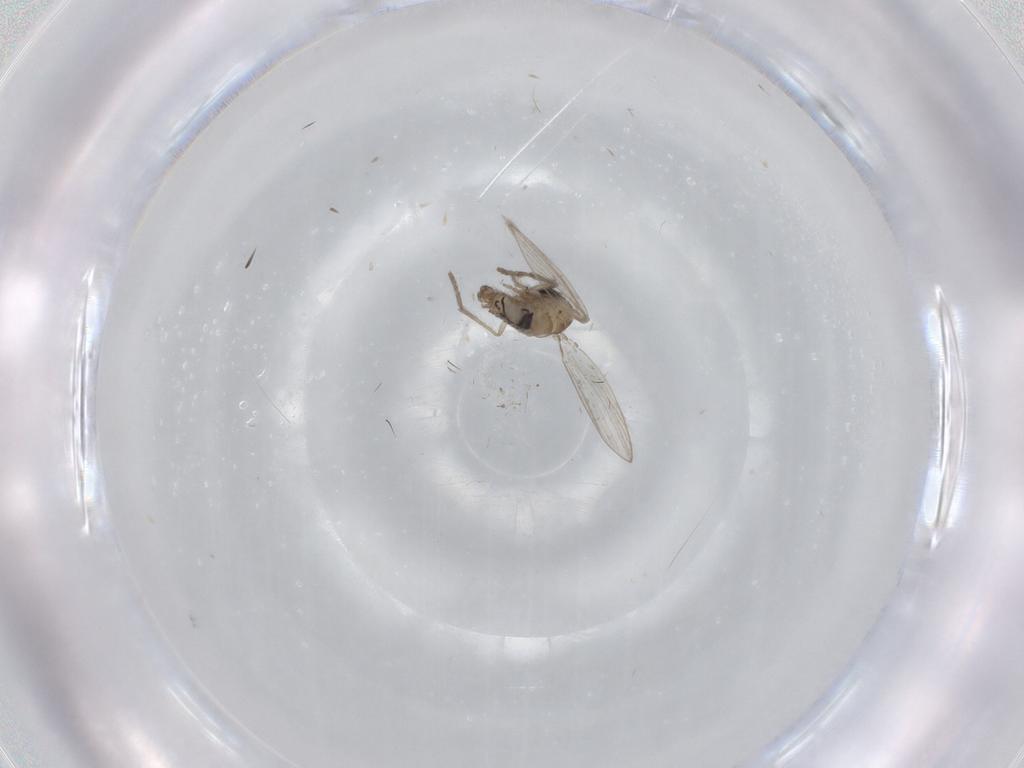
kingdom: Animalia
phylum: Arthropoda
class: Insecta
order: Diptera
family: Psychodidae
